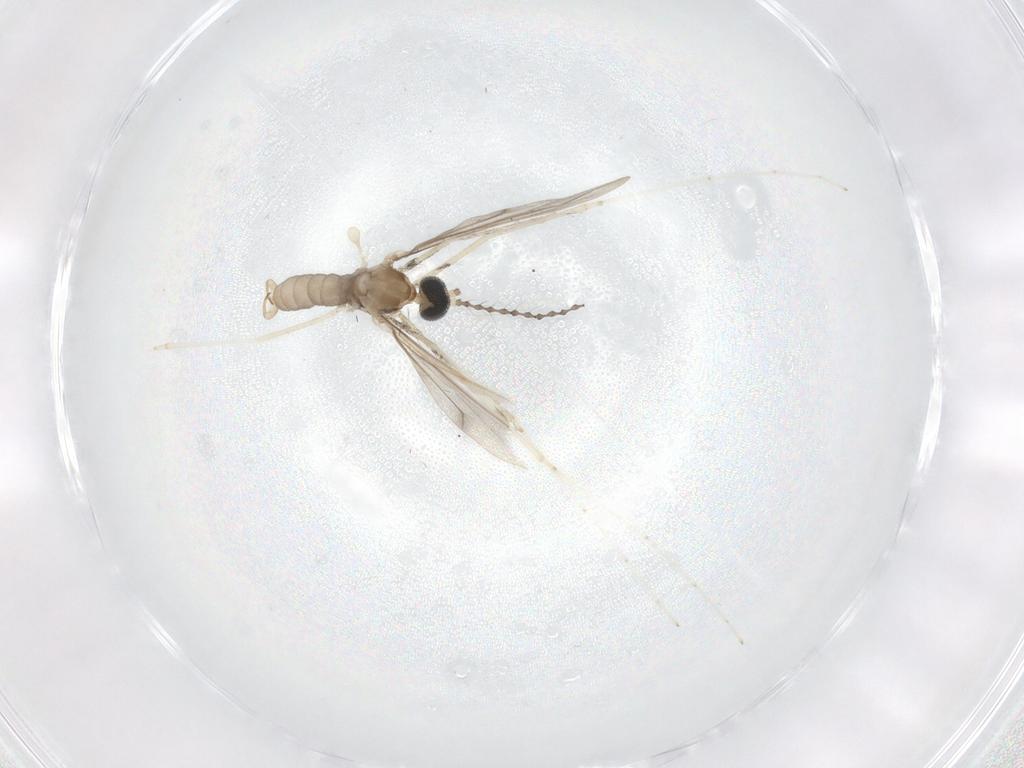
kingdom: Animalia
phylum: Arthropoda
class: Insecta
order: Diptera
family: Cecidomyiidae
